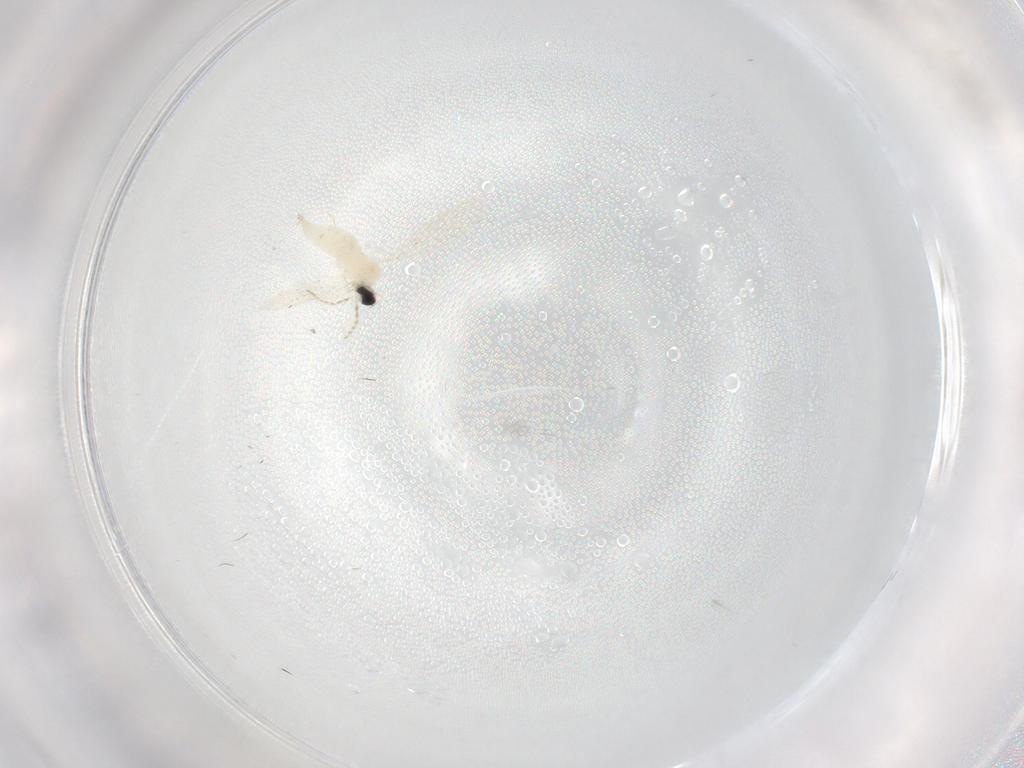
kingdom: Animalia
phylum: Arthropoda
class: Insecta
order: Diptera
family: Cecidomyiidae
